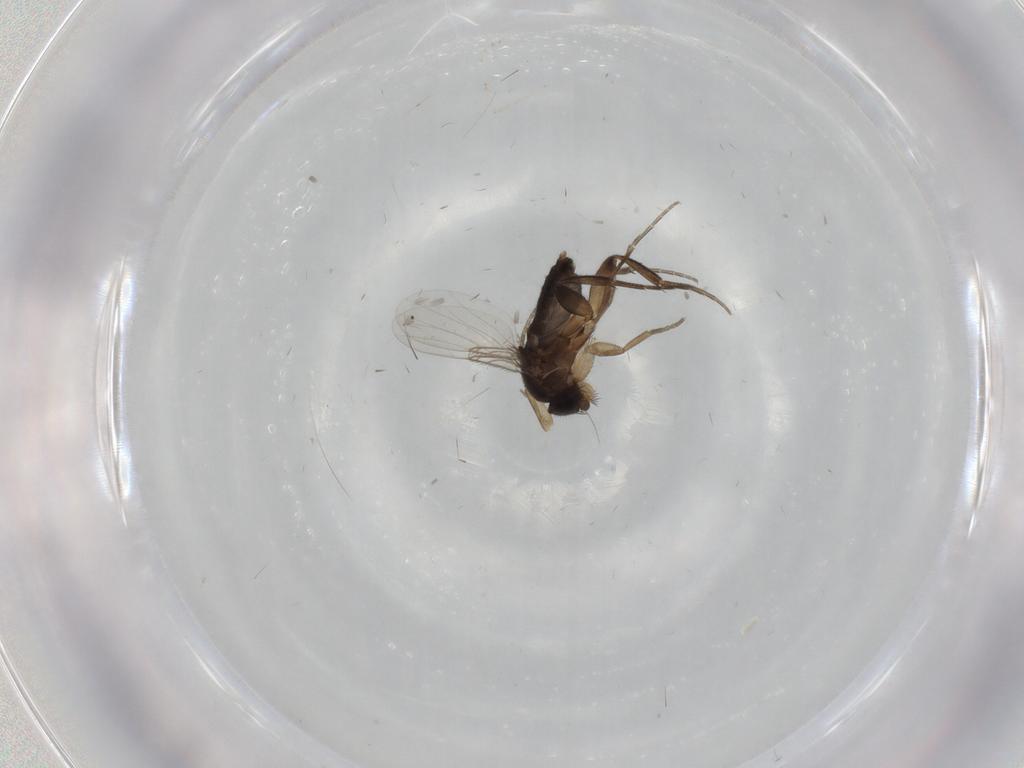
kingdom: Animalia
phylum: Arthropoda
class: Insecta
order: Diptera
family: Phoridae
